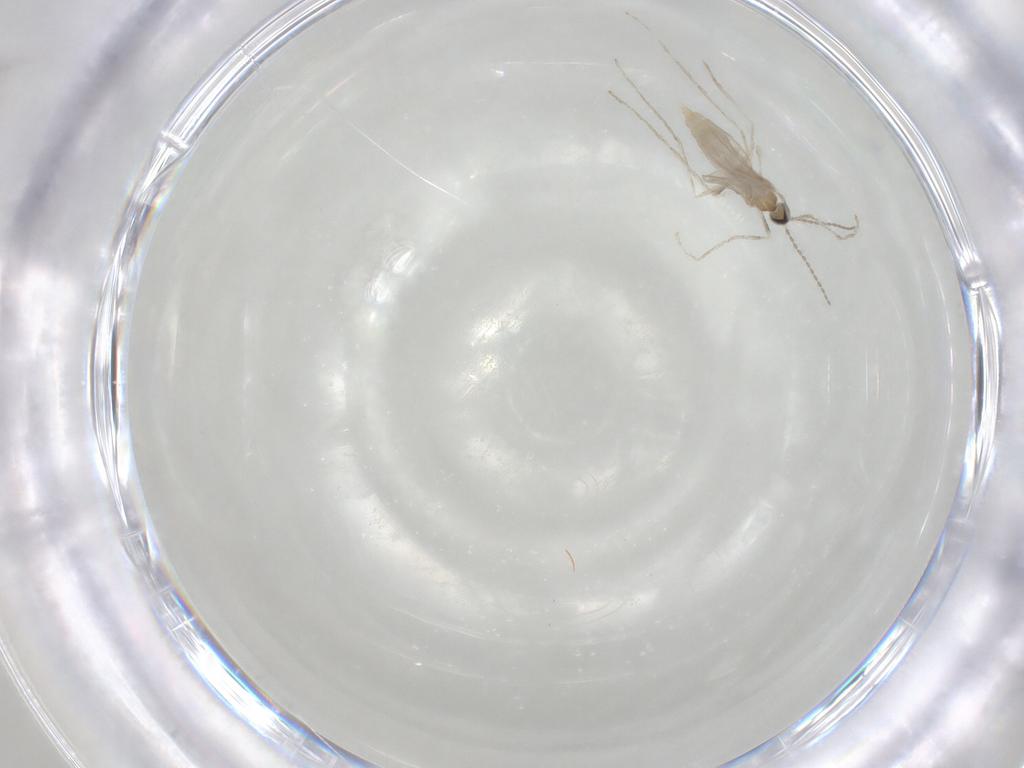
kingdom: Animalia
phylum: Arthropoda
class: Insecta
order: Diptera
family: Cecidomyiidae
